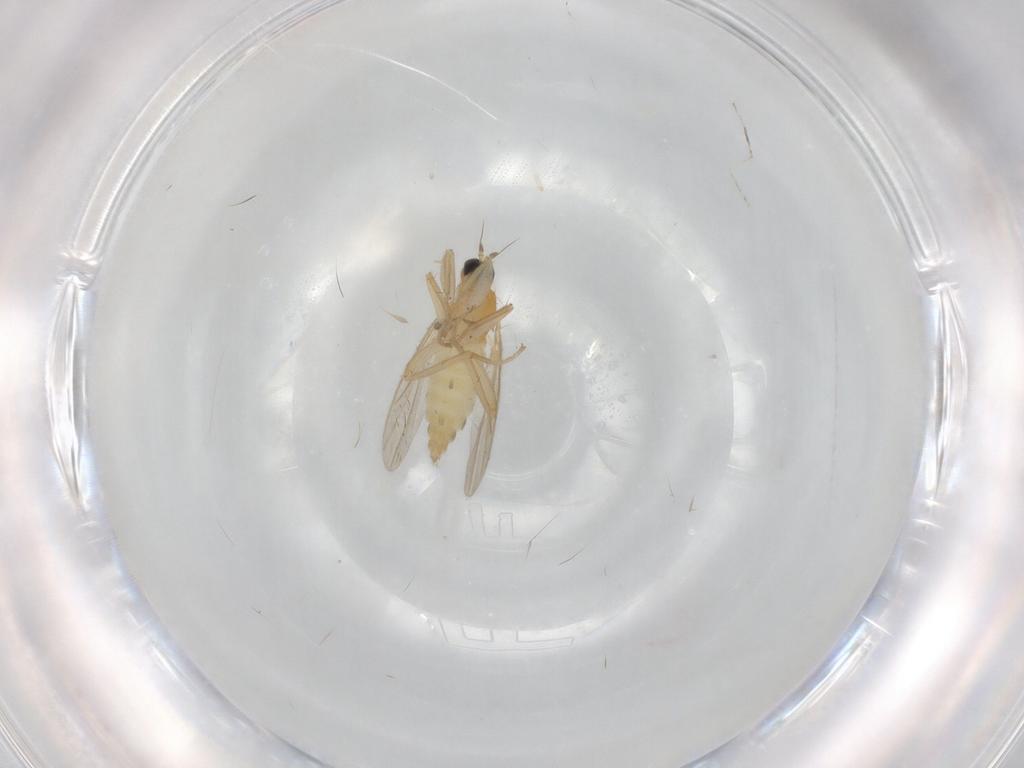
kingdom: Animalia
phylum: Arthropoda
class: Insecta
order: Diptera
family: Hybotidae
